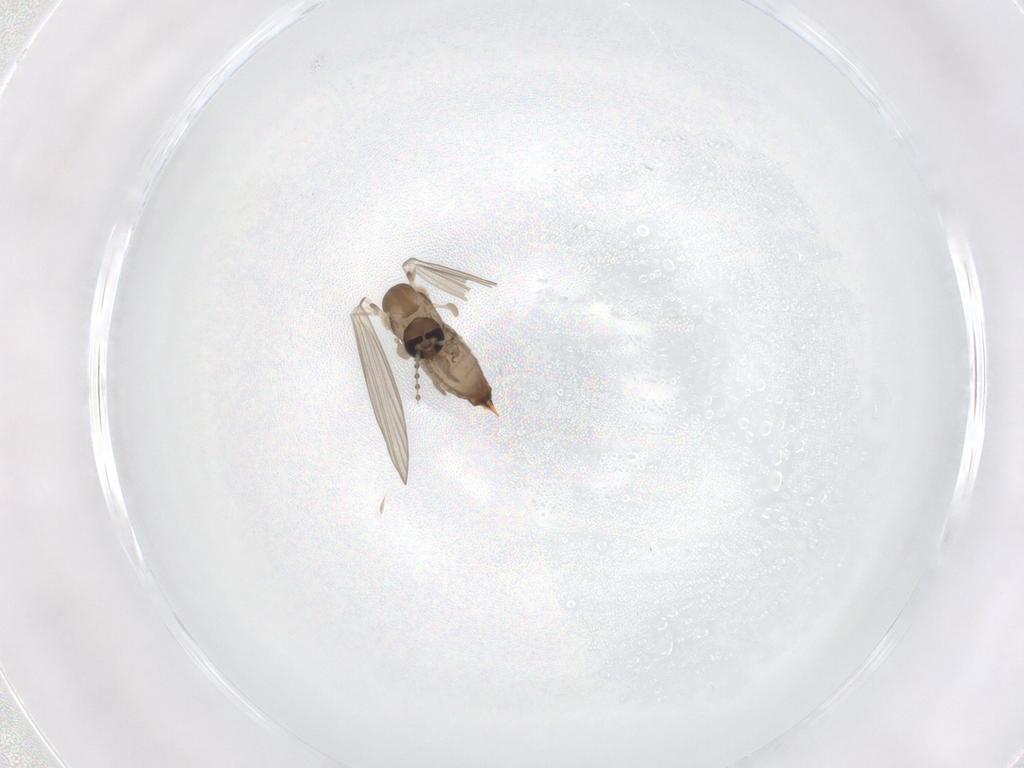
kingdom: Animalia
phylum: Arthropoda
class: Insecta
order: Diptera
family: Psychodidae
